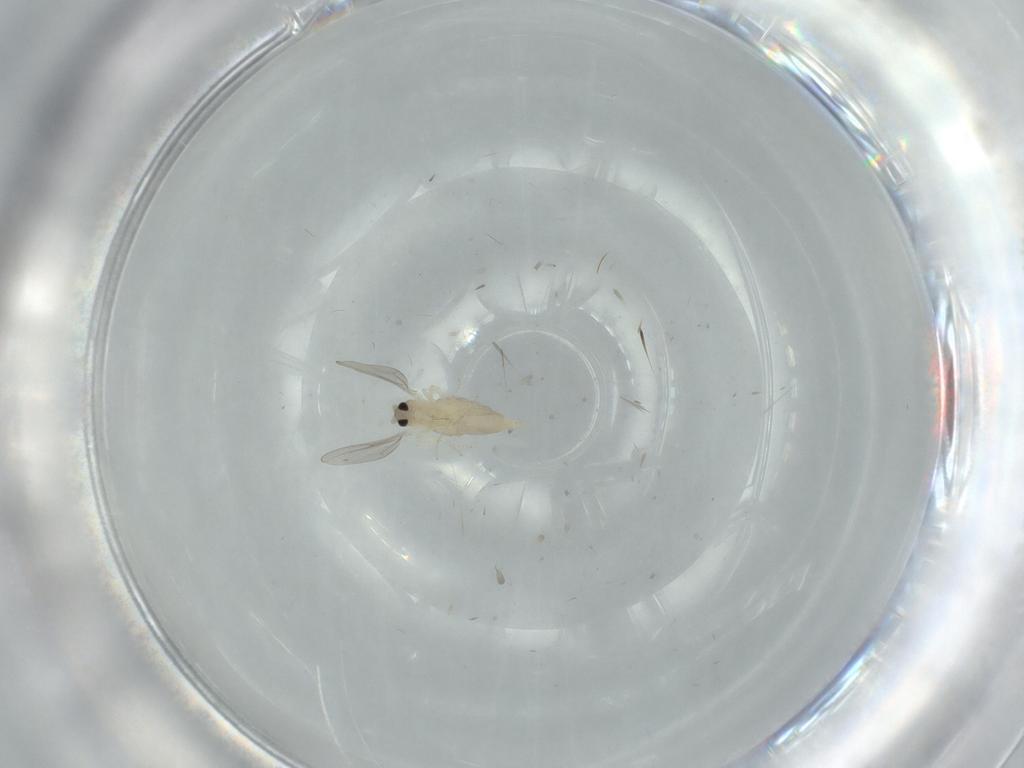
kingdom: Animalia
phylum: Arthropoda
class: Insecta
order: Diptera
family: Cecidomyiidae
